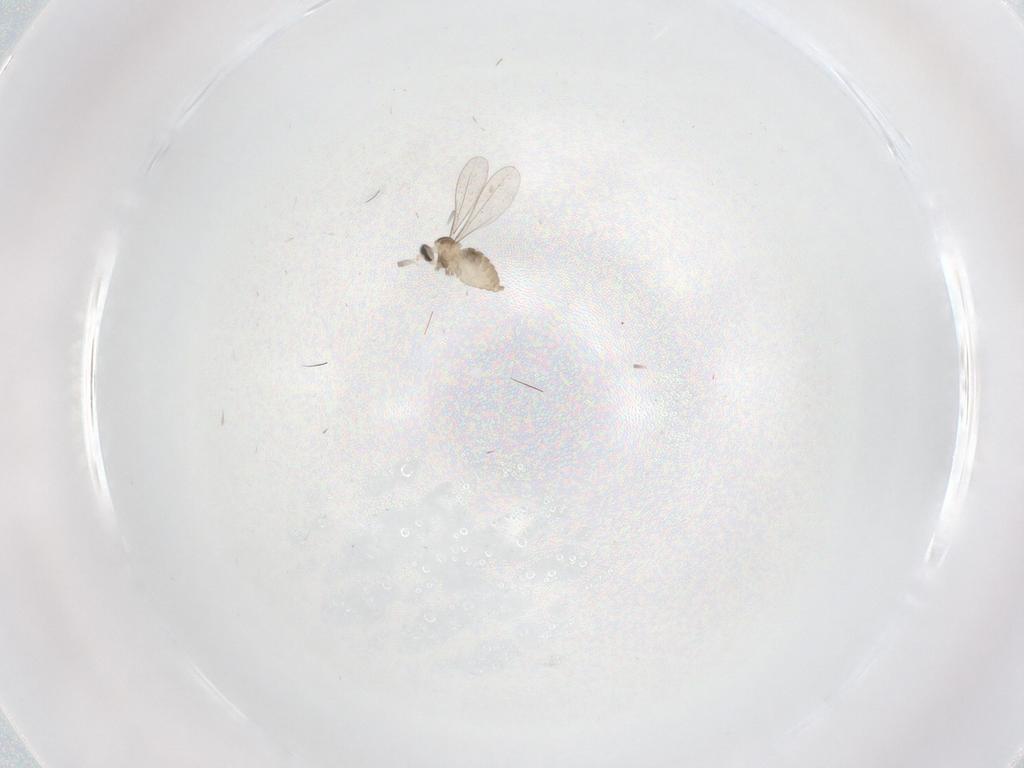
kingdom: Animalia
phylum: Arthropoda
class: Insecta
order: Diptera
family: Cecidomyiidae
